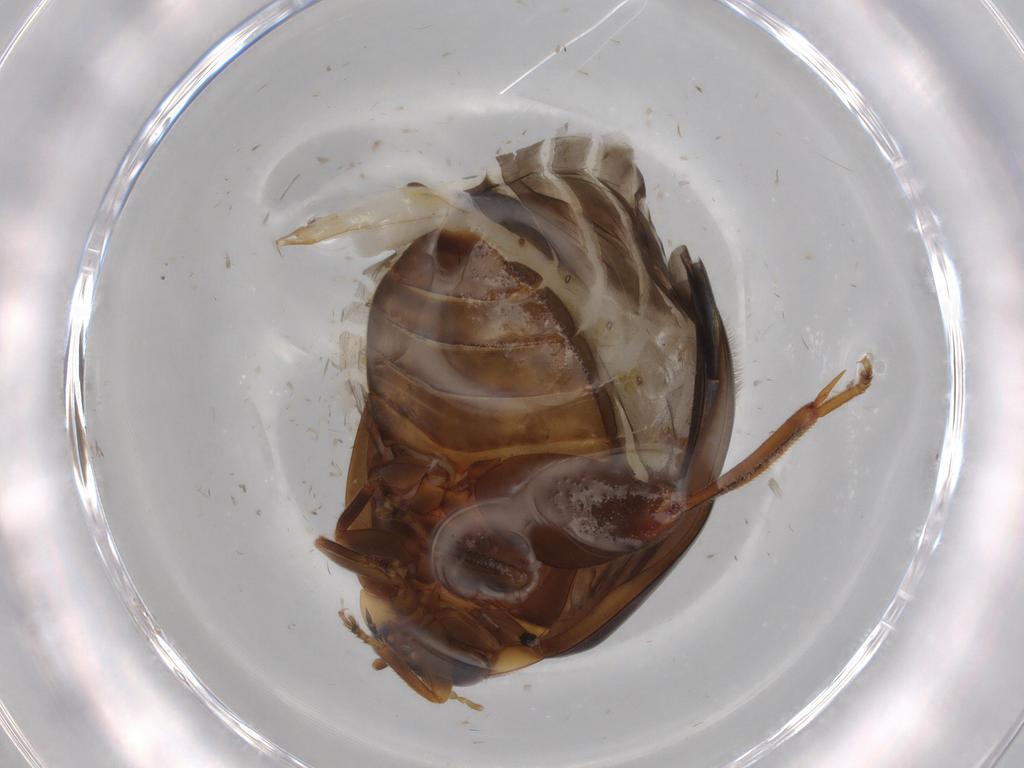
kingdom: Animalia
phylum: Arthropoda
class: Insecta
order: Coleoptera
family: Scirtidae
